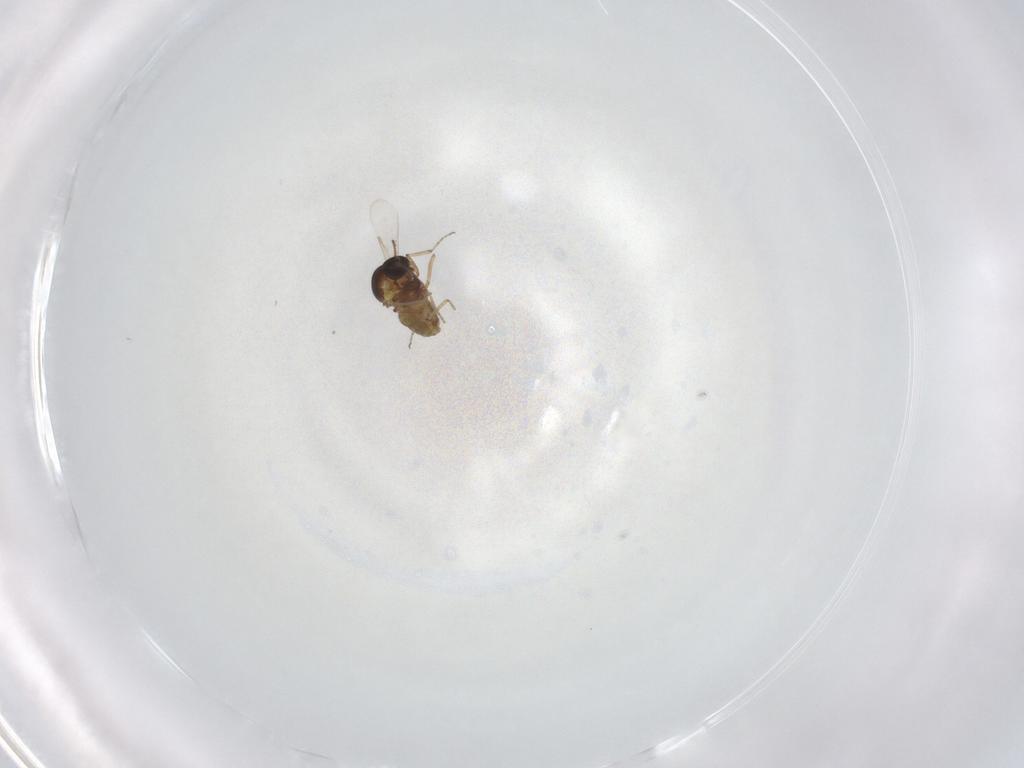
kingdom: Animalia
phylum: Arthropoda
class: Insecta
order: Diptera
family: Ceratopogonidae
